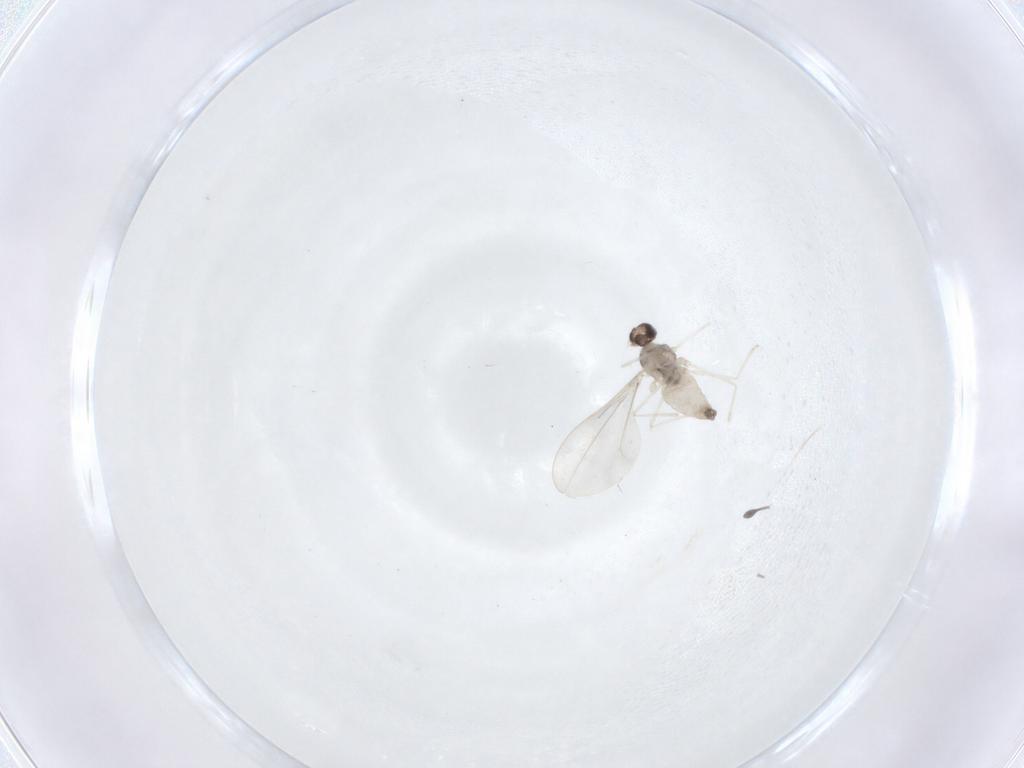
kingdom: Animalia
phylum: Arthropoda
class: Insecta
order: Diptera
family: Cecidomyiidae
